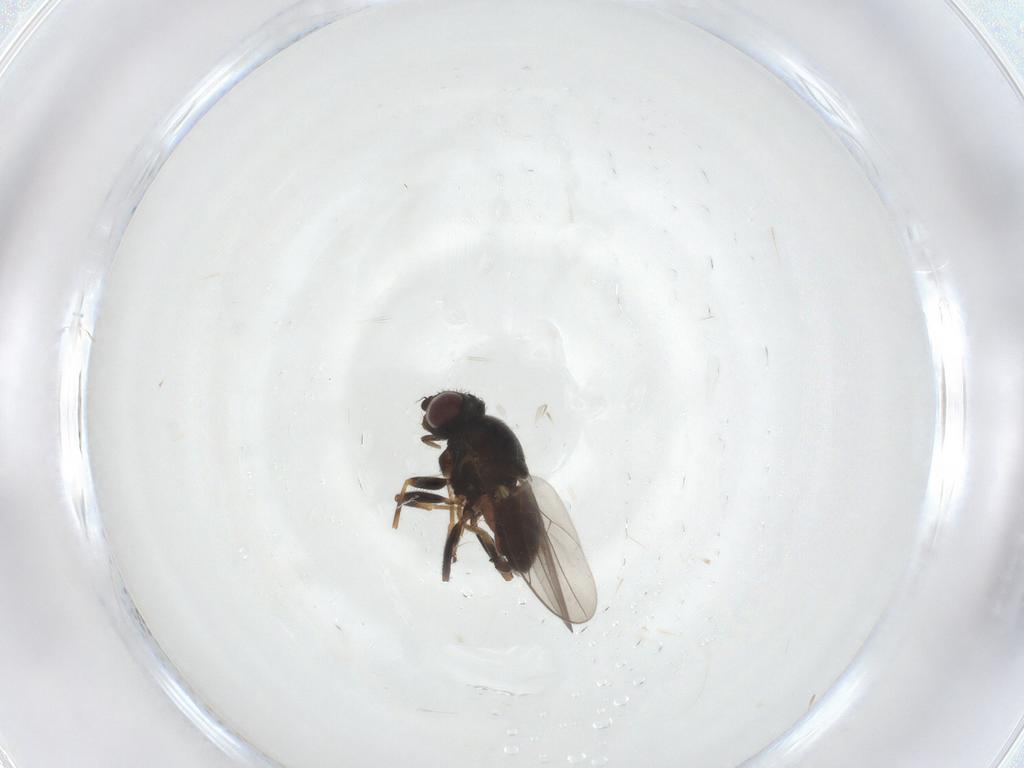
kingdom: Animalia
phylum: Arthropoda
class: Insecta
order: Diptera
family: Chloropidae
